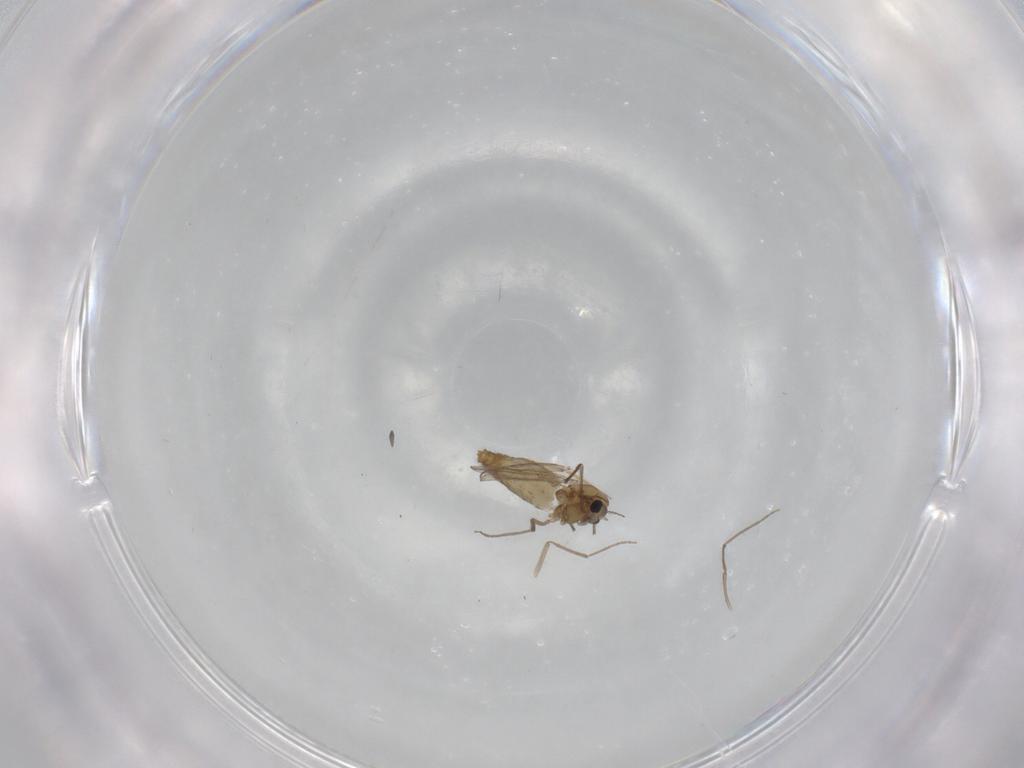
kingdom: Animalia
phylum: Arthropoda
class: Insecta
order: Diptera
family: Chironomidae
